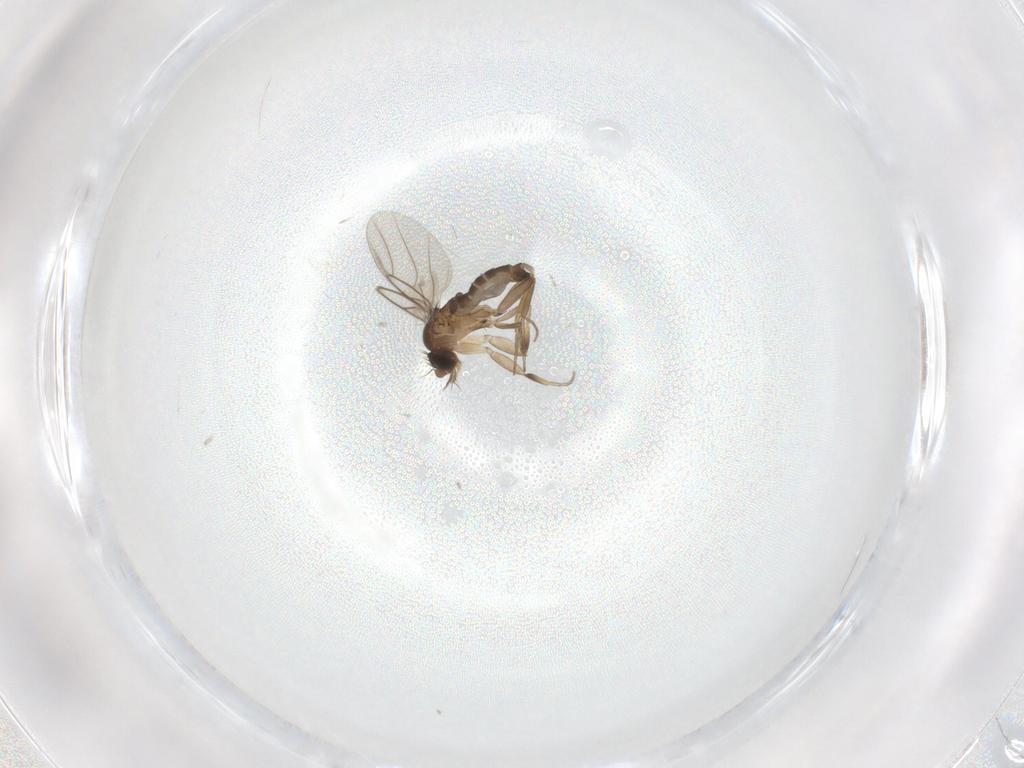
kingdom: Animalia
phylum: Arthropoda
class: Insecta
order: Diptera
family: Phoridae
